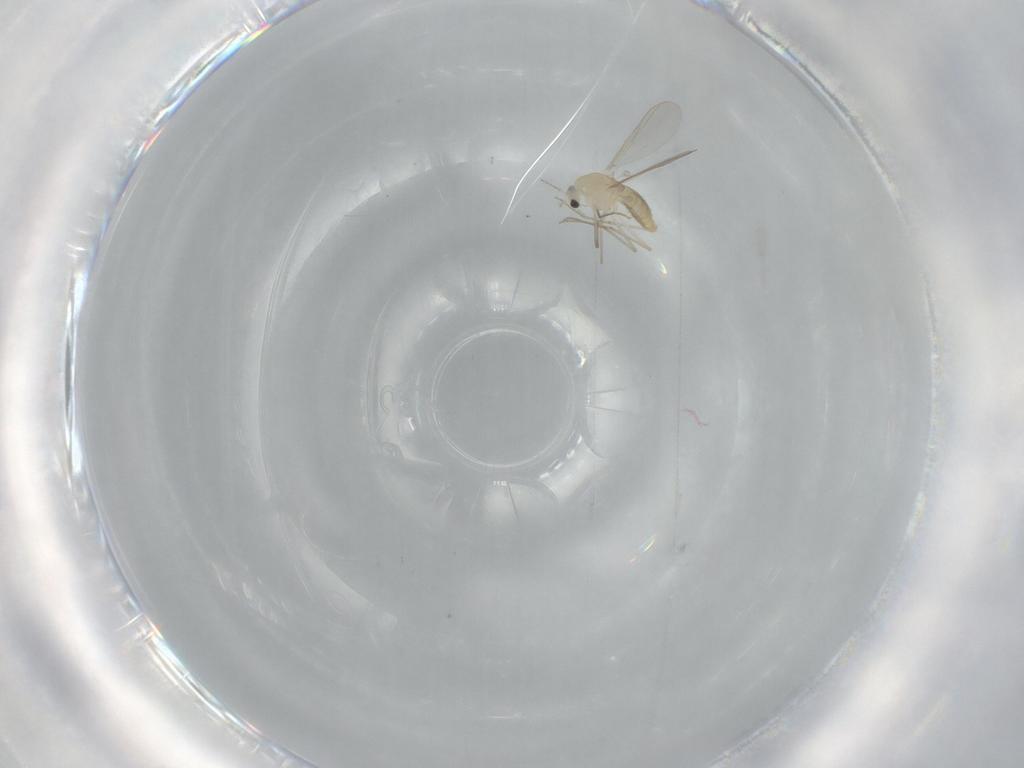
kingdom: Animalia
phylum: Arthropoda
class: Insecta
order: Diptera
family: Chironomidae
